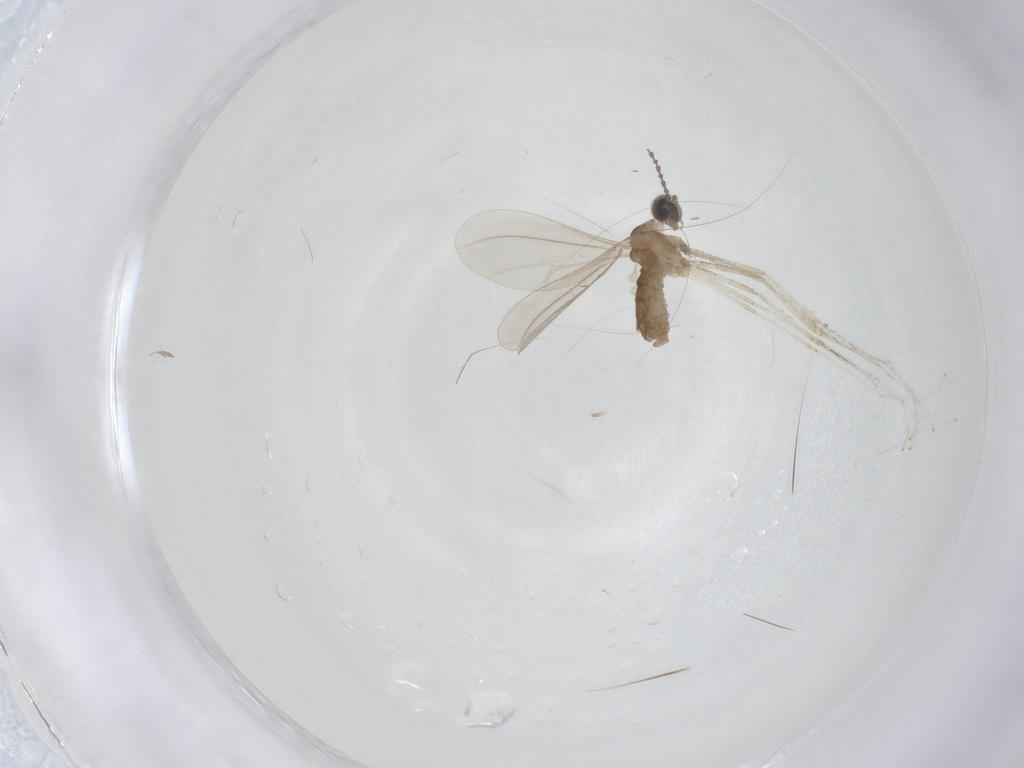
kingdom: Animalia
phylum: Arthropoda
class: Insecta
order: Diptera
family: Cecidomyiidae
